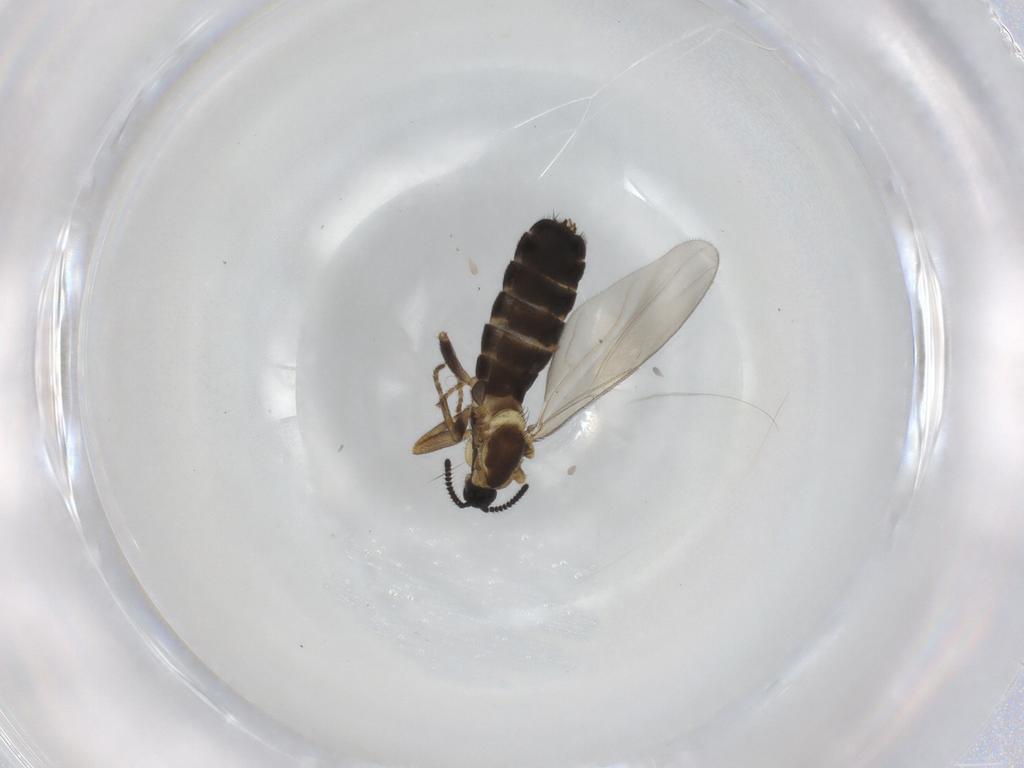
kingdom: Animalia
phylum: Arthropoda
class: Insecta
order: Diptera
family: Scatopsidae
